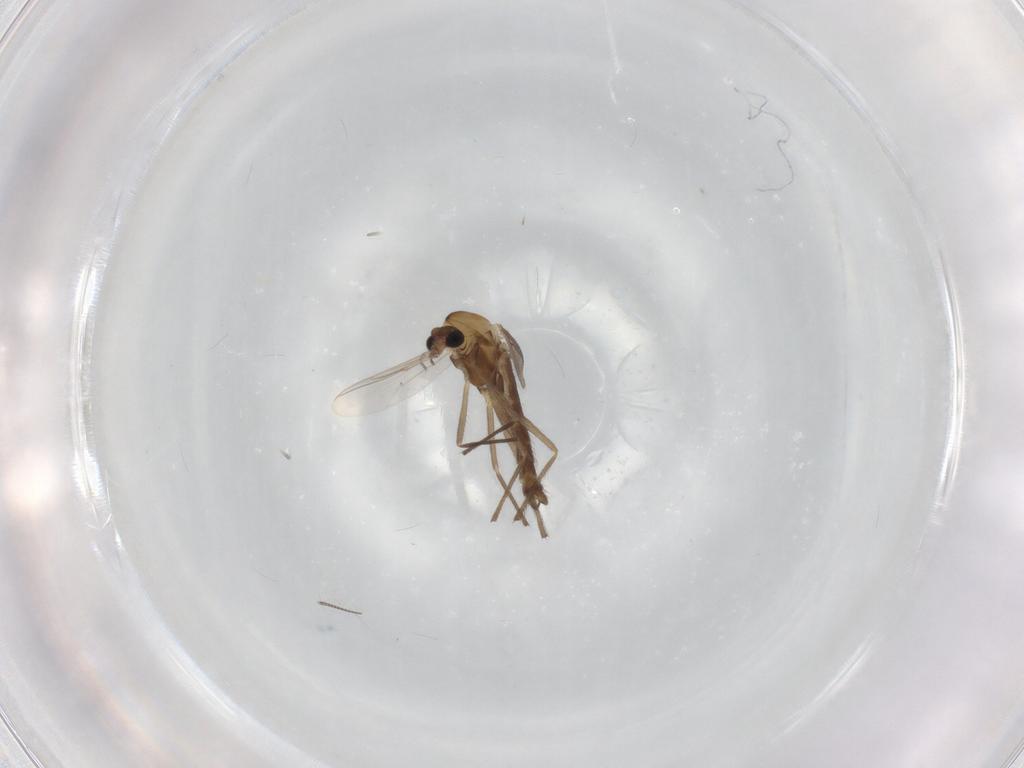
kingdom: Animalia
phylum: Arthropoda
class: Insecta
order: Diptera
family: Chironomidae
